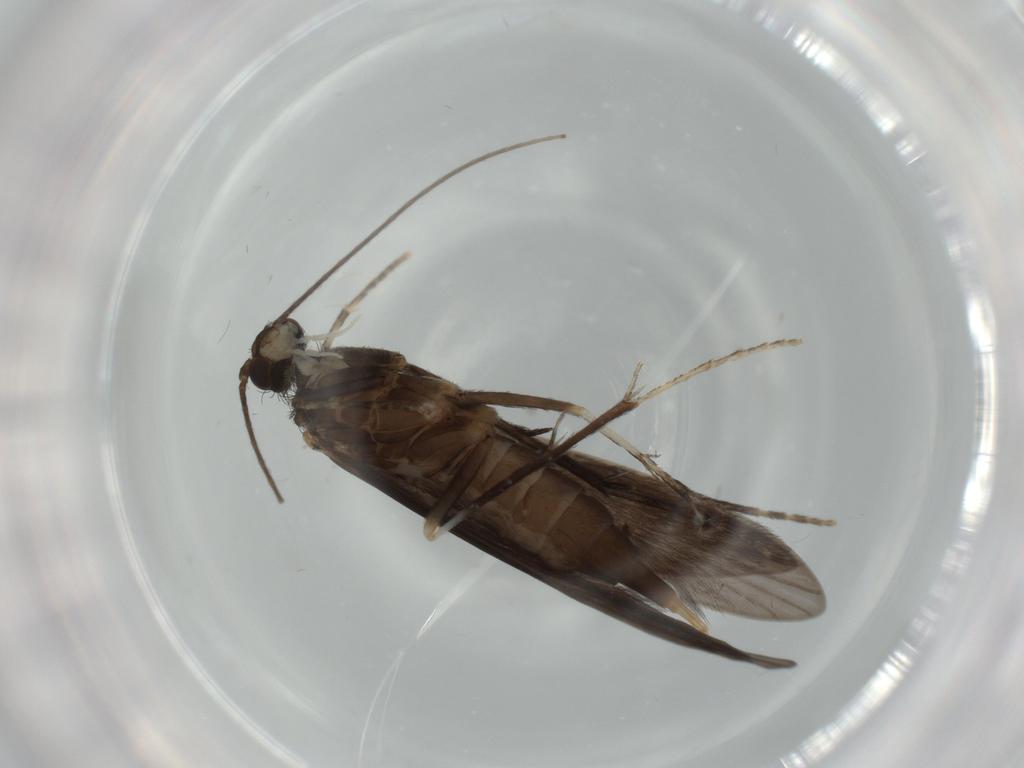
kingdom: Animalia
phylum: Arthropoda
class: Insecta
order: Trichoptera
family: Xiphocentronidae
